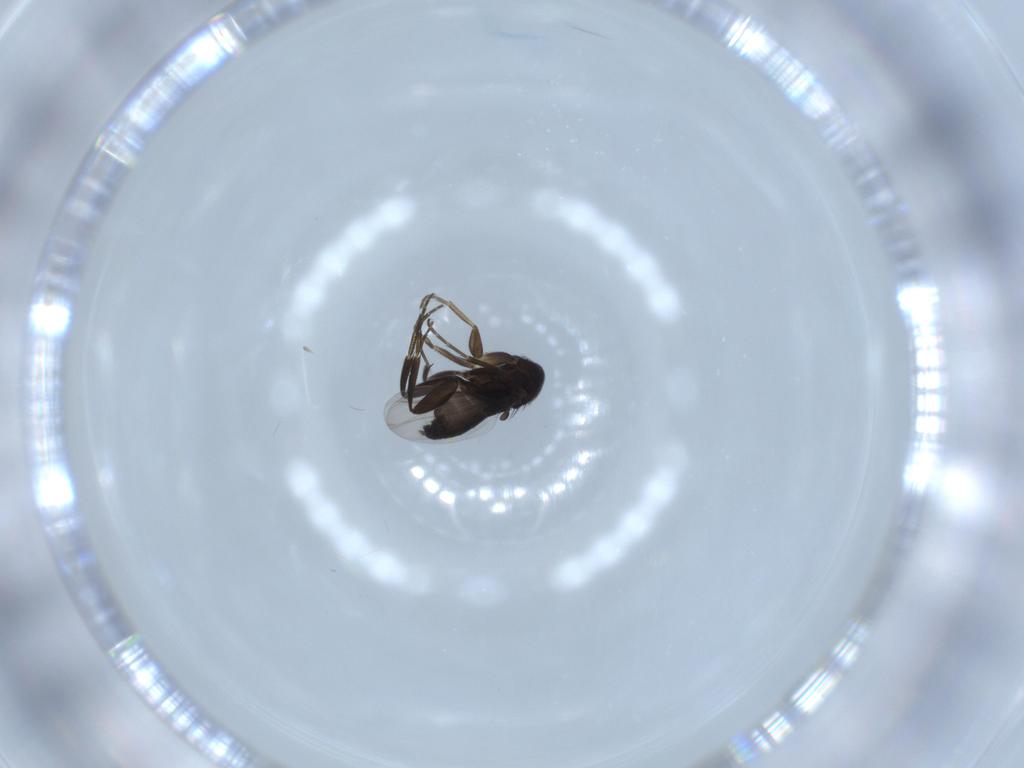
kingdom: Animalia
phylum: Arthropoda
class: Insecta
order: Diptera
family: Phoridae
